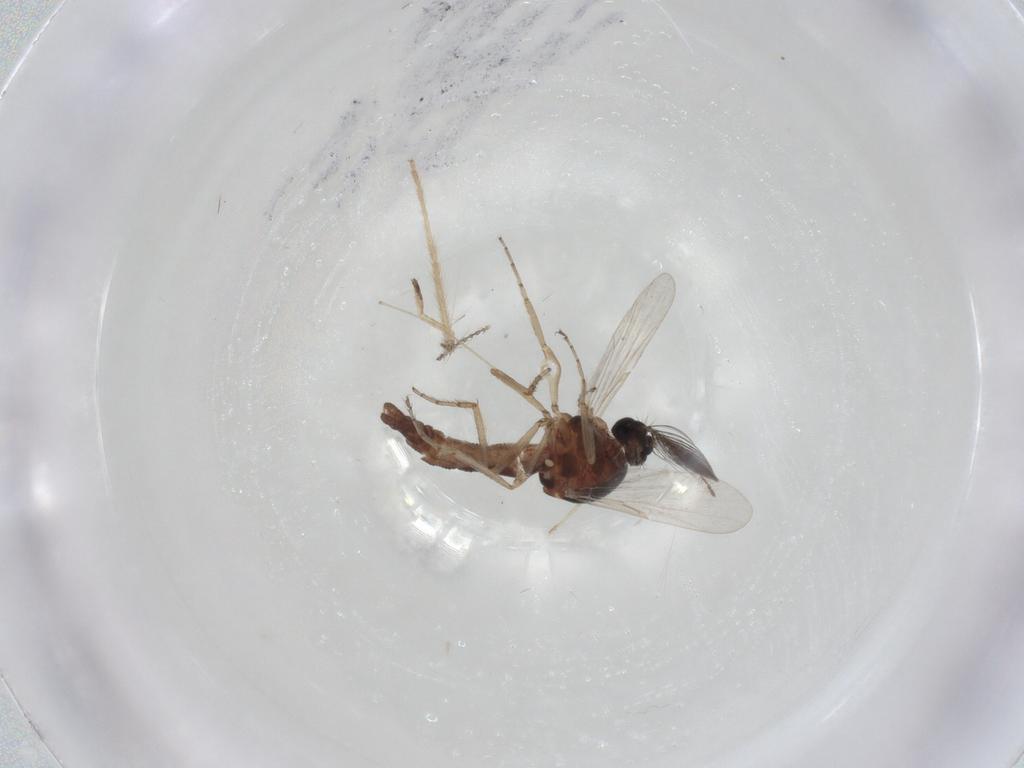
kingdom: Animalia
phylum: Arthropoda
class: Insecta
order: Diptera
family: Ceratopogonidae
